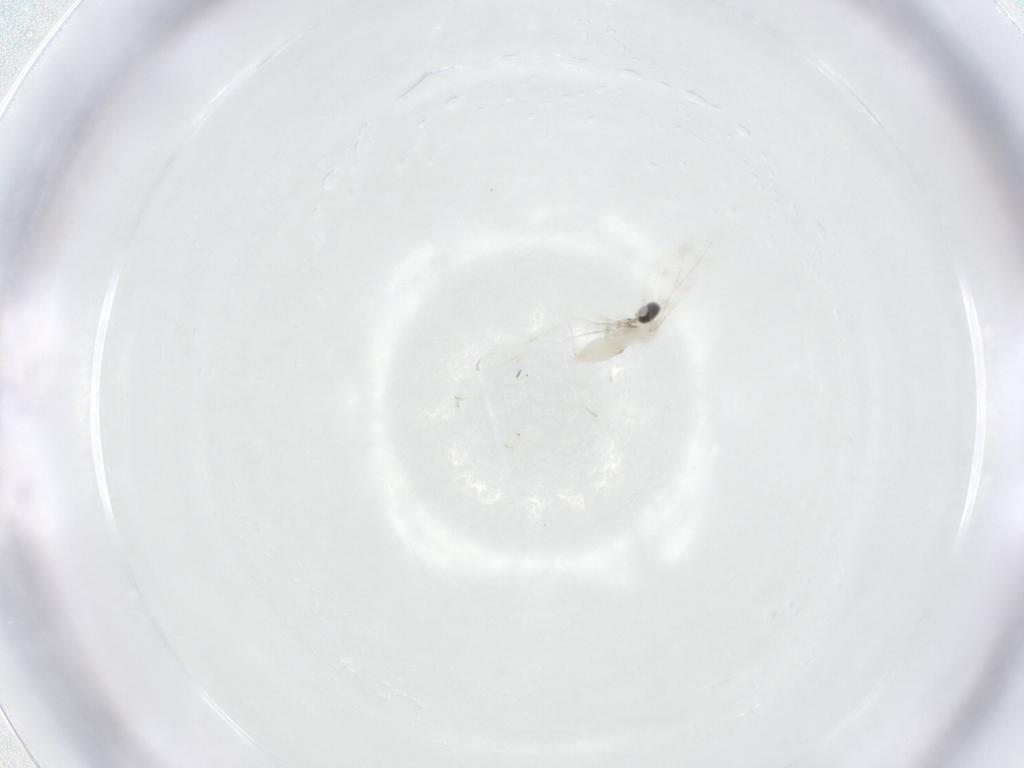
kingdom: Animalia
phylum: Arthropoda
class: Insecta
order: Diptera
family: Cecidomyiidae
